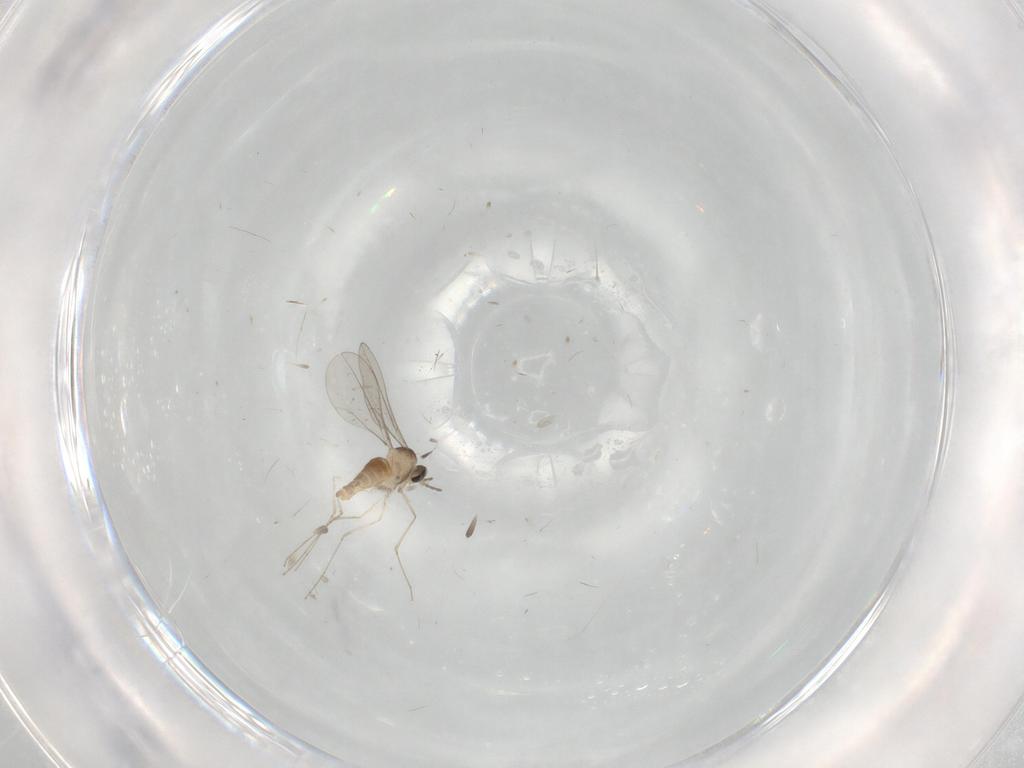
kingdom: Animalia
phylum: Arthropoda
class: Insecta
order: Diptera
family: Cecidomyiidae
